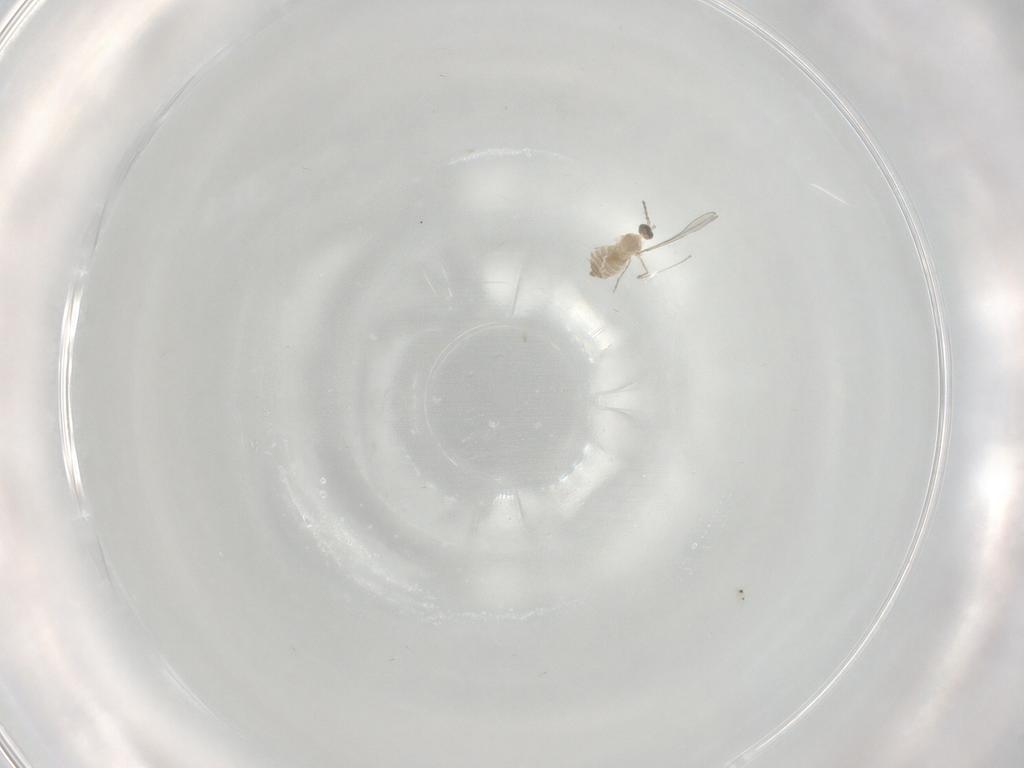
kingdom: Animalia
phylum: Arthropoda
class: Insecta
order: Diptera
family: Cecidomyiidae
